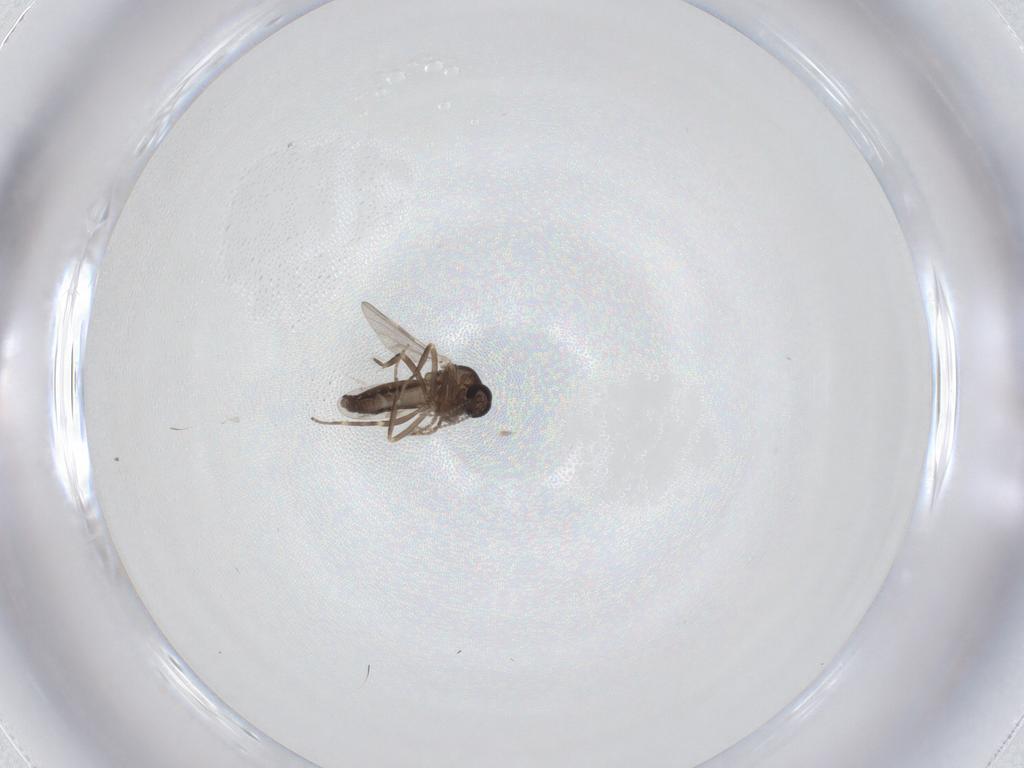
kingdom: Animalia
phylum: Arthropoda
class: Insecta
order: Diptera
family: Ceratopogonidae
